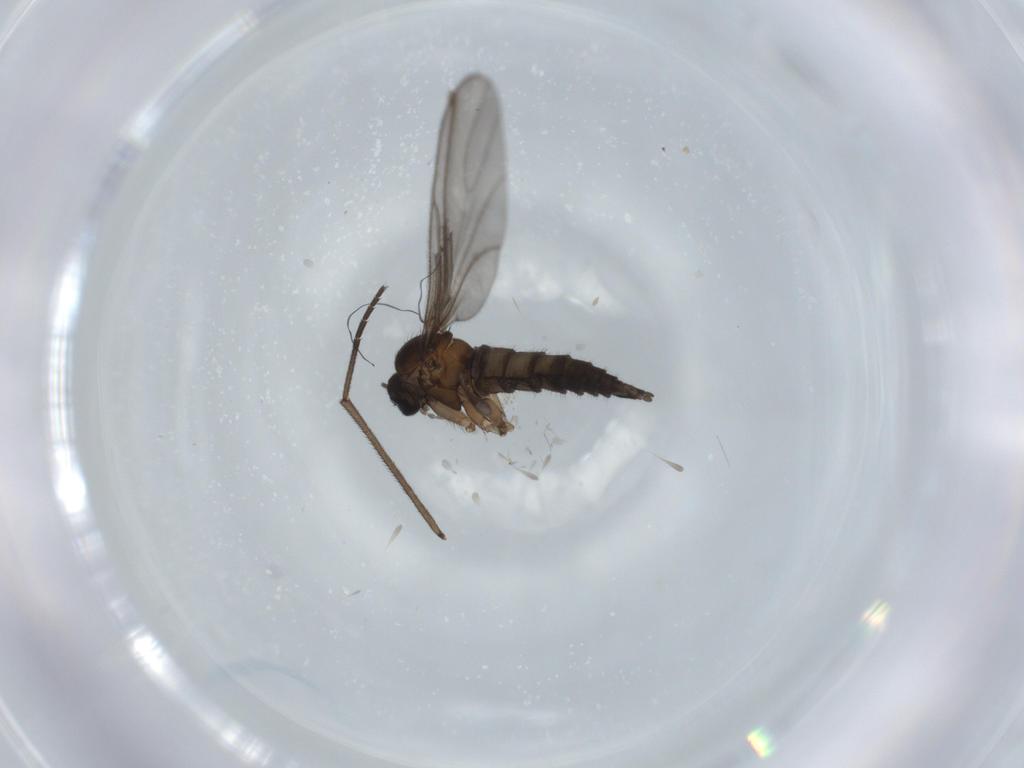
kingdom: Animalia
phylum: Arthropoda
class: Insecta
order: Diptera
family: Sciaridae
